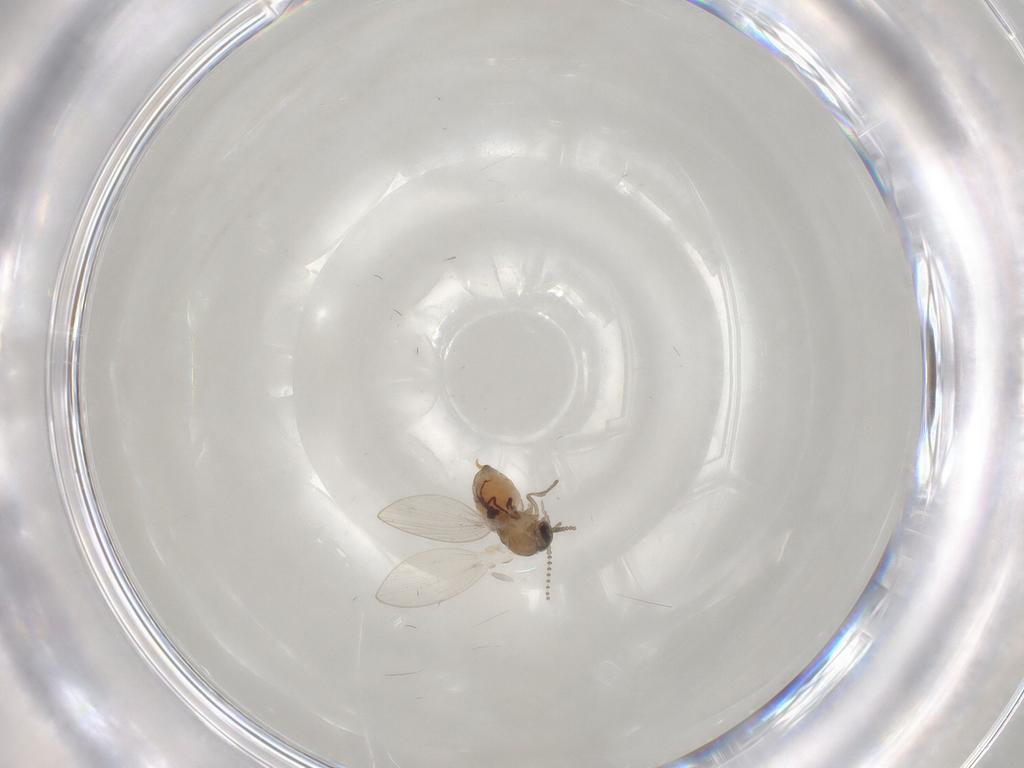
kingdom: Animalia
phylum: Arthropoda
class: Insecta
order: Diptera
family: Psychodidae
